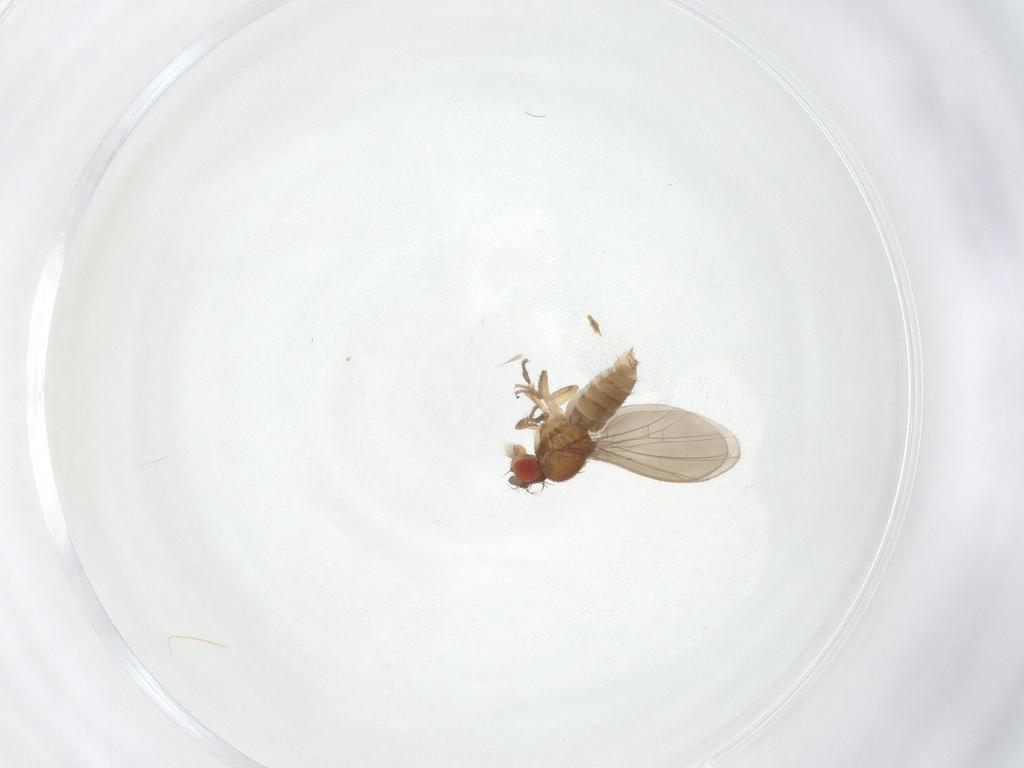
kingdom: Animalia
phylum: Arthropoda
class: Insecta
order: Diptera
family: Drosophilidae
